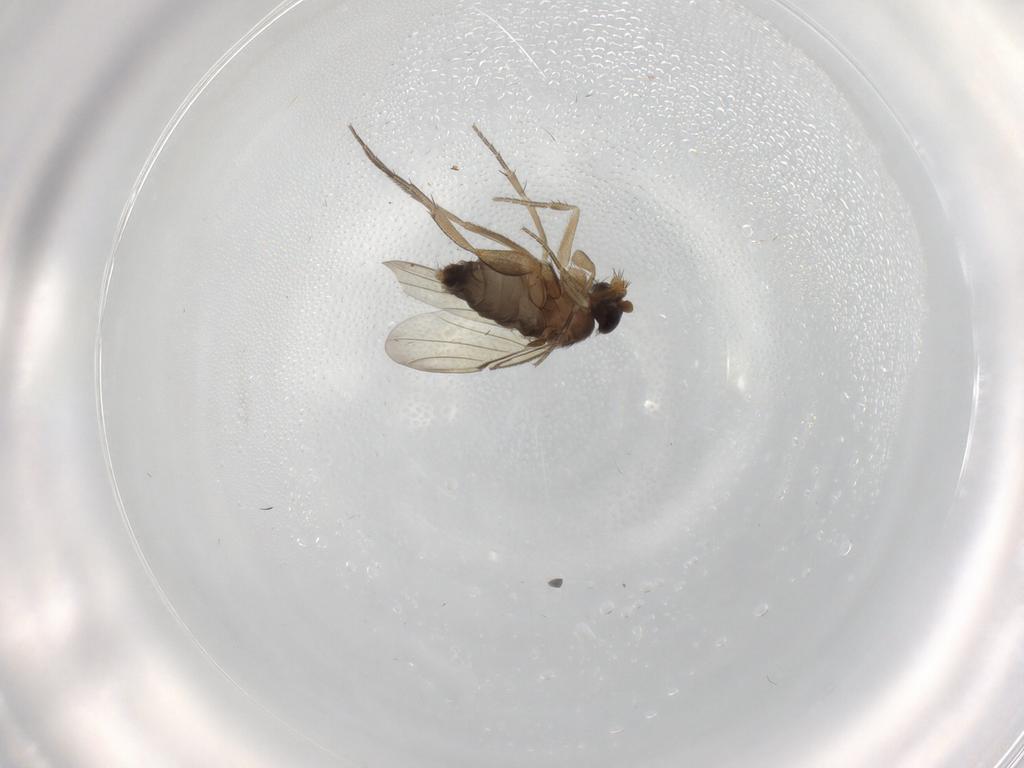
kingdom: Animalia
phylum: Arthropoda
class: Insecta
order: Diptera
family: Phoridae
